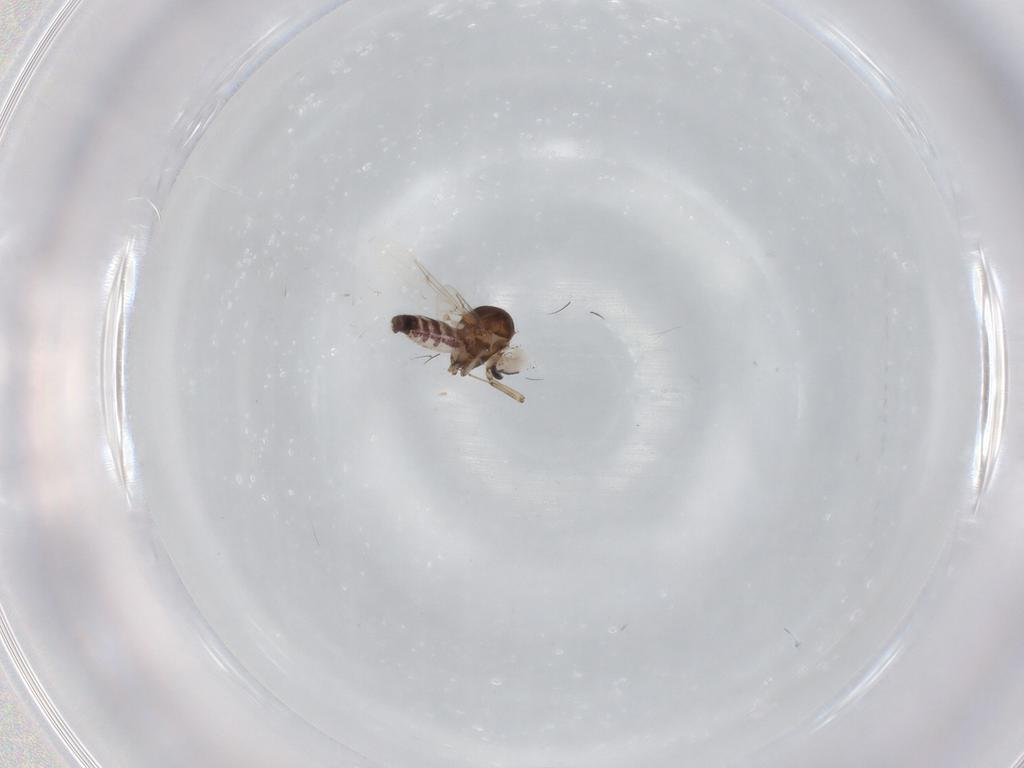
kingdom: Animalia
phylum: Arthropoda
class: Insecta
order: Diptera
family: Ceratopogonidae
